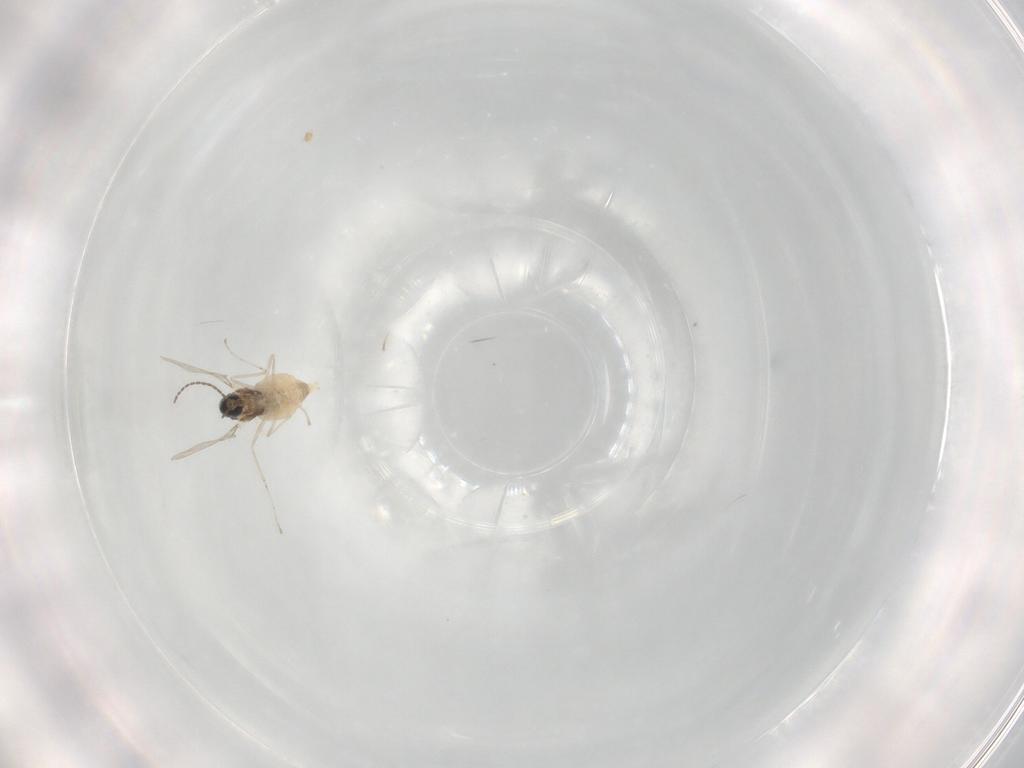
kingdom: Animalia
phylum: Arthropoda
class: Insecta
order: Diptera
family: Cecidomyiidae
